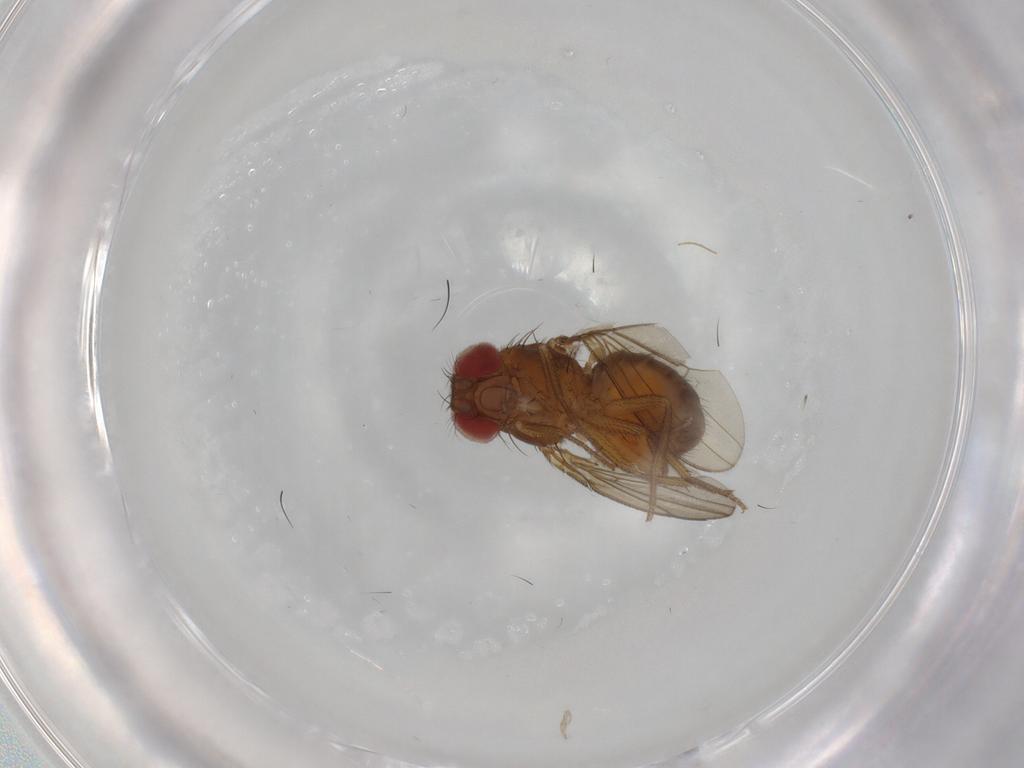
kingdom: Animalia
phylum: Arthropoda
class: Insecta
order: Diptera
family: Drosophilidae
